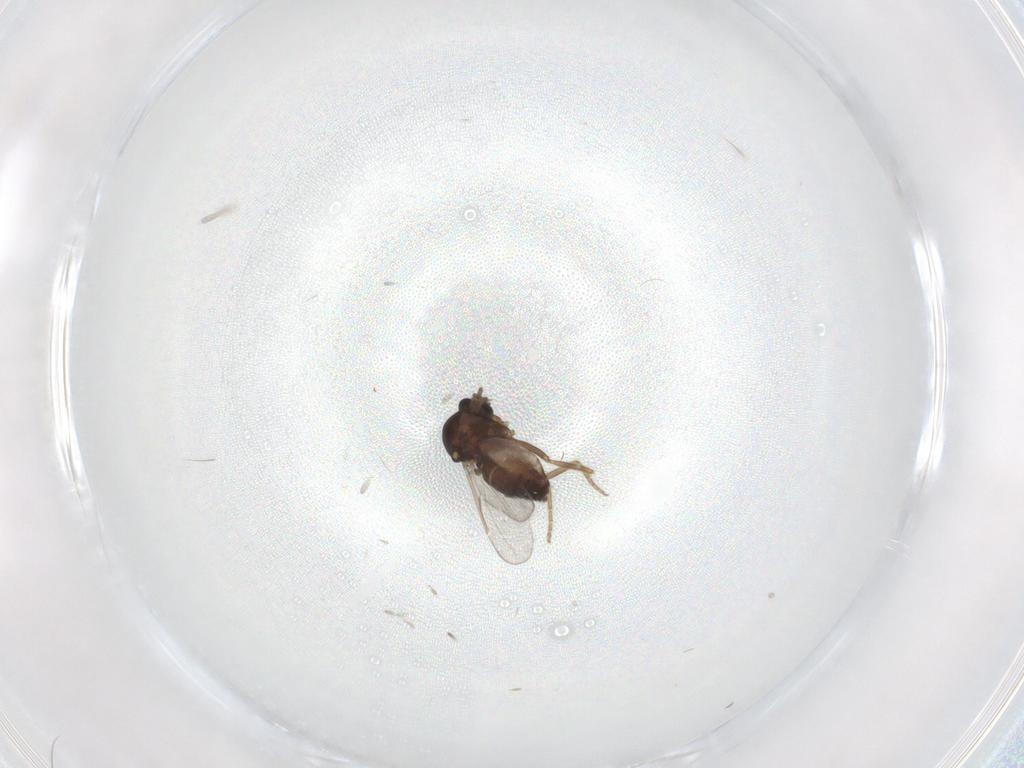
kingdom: Animalia
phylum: Arthropoda
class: Insecta
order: Diptera
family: Ceratopogonidae
